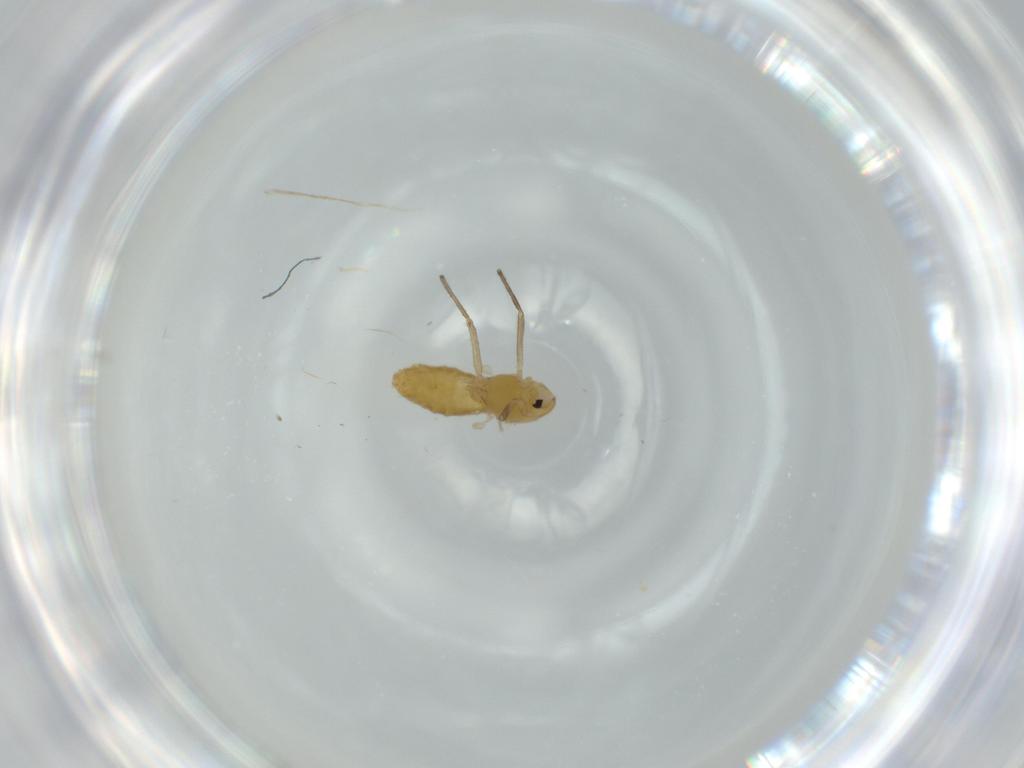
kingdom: Animalia
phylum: Arthropoda
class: Insecta
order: Diptera
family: Chironomidae
